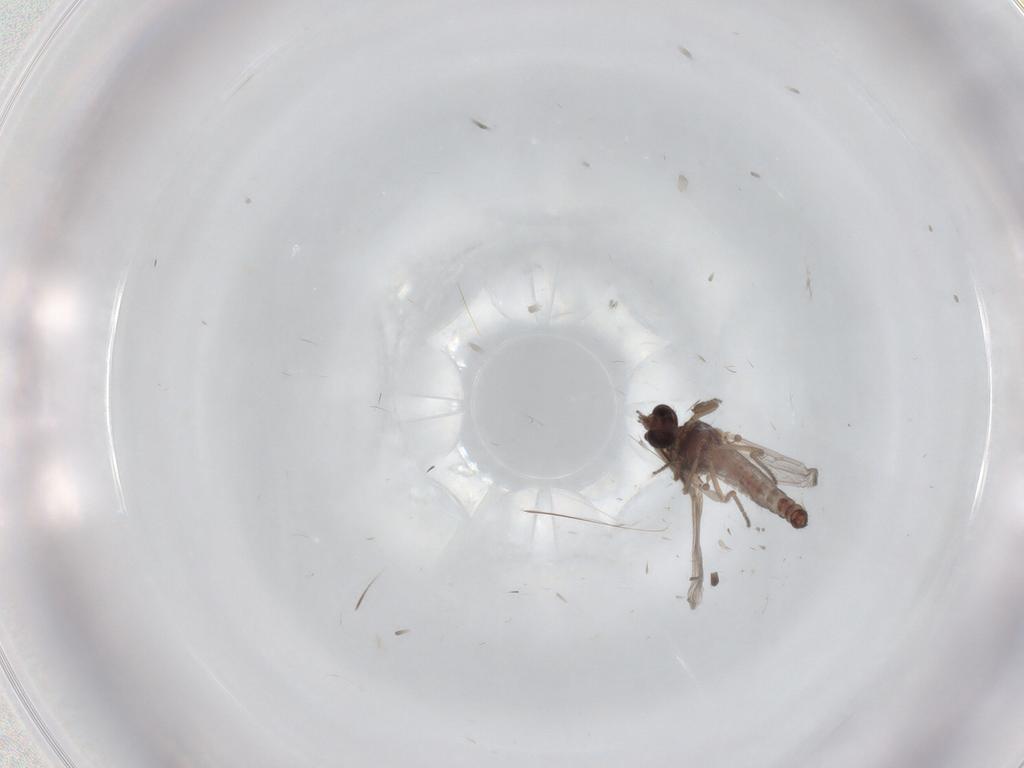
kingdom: Animalia
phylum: Arthropoda
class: Insecta
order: Diptera
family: Ceratopogonidae
